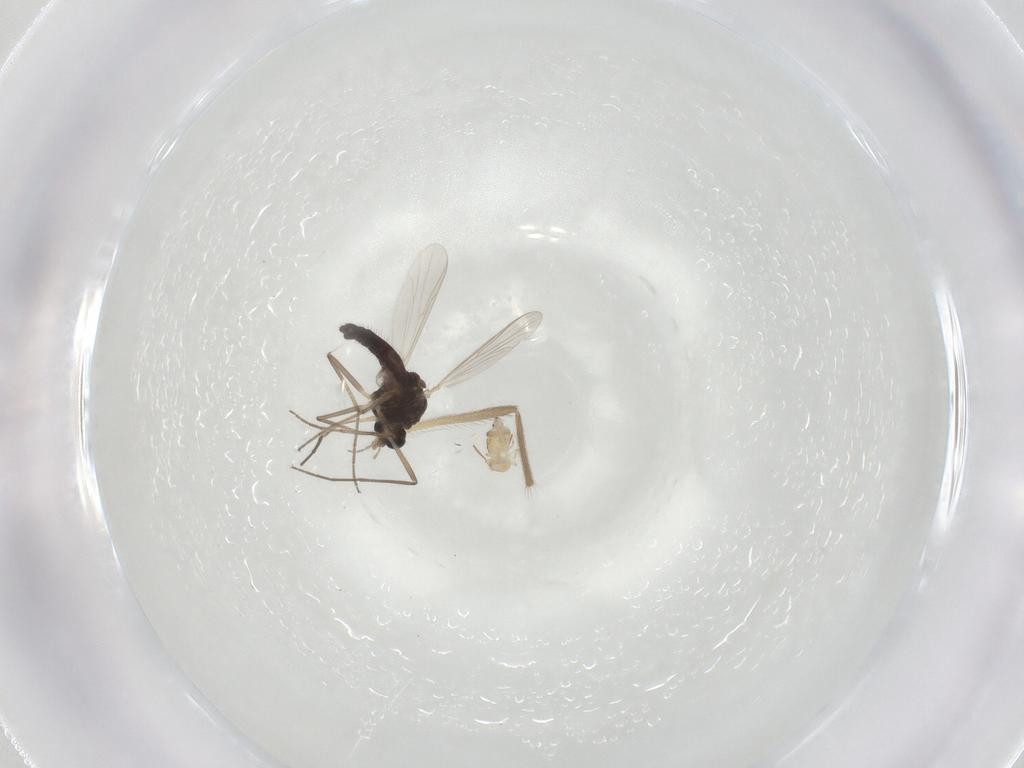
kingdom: Animalia
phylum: Arthropoda
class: Insecta
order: Diptera
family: Chironomidae
